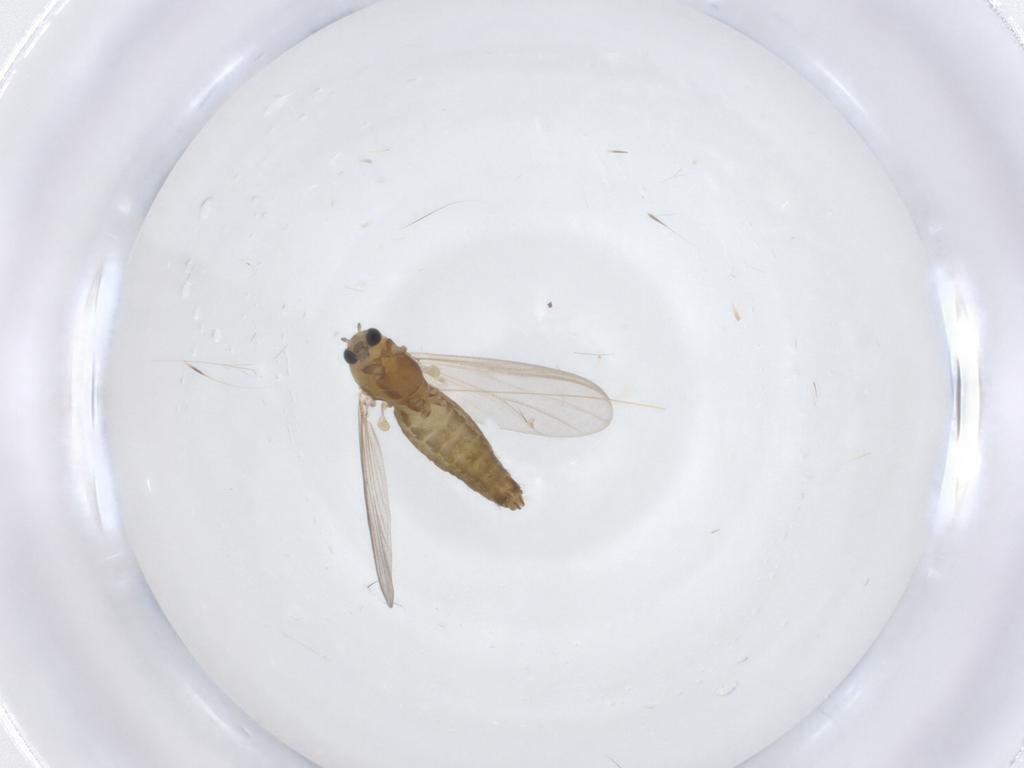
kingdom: Animalia
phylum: Arthropoda
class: Insecta
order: Diptera
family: Chironomidae
